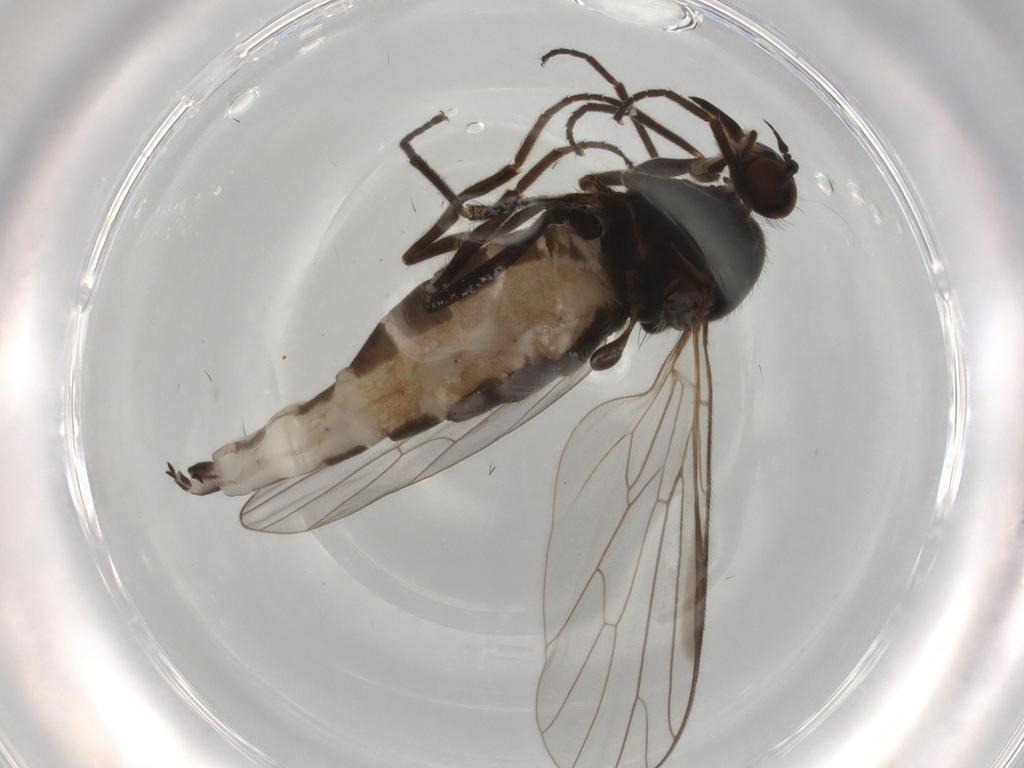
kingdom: Animalia
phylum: Arthropoda
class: Insecta
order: Diptera
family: Empididae
